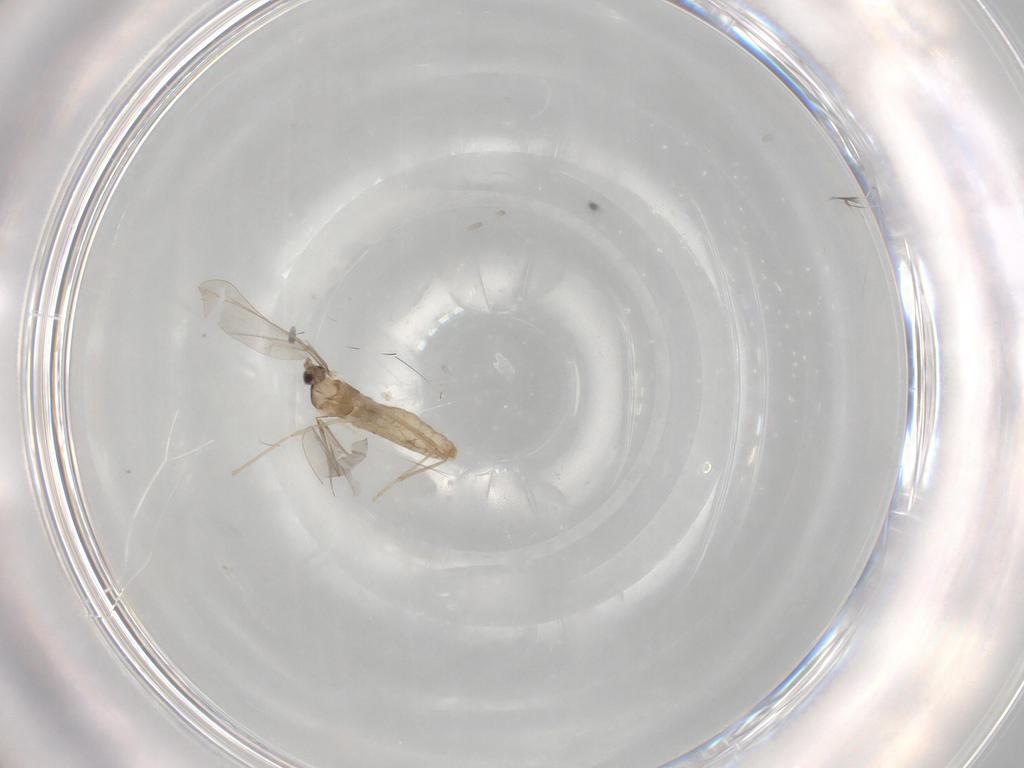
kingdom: Animalia
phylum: Arthropoda
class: Insecta
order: Diptera
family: Cecidomyiidae
